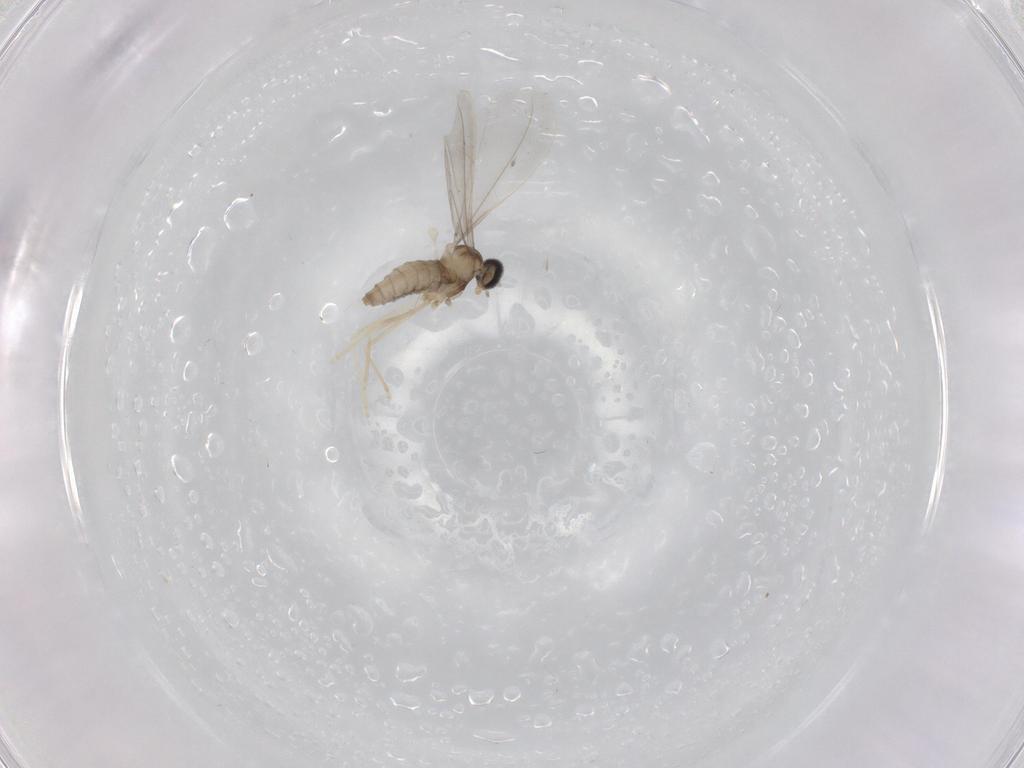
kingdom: Animalia
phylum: Arthropoda
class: Insecta
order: Diptera
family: Cecidomyiidae
